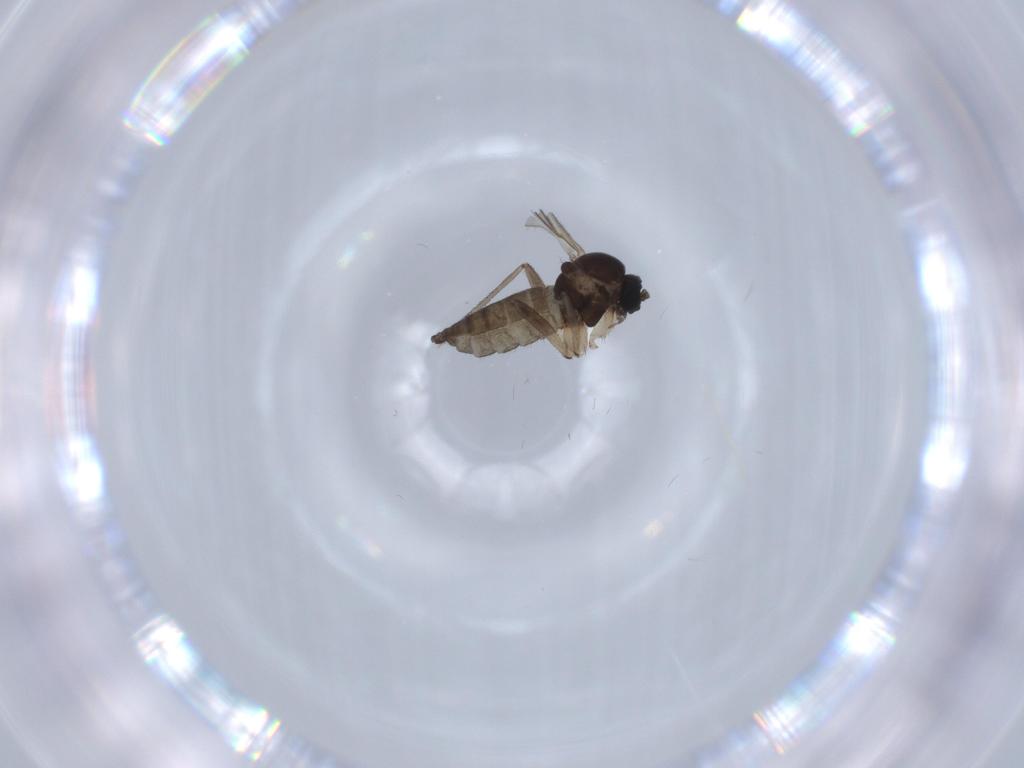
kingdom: Animalia
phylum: Arthropoda
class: Insecta
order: Diptera
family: Sciaridae
